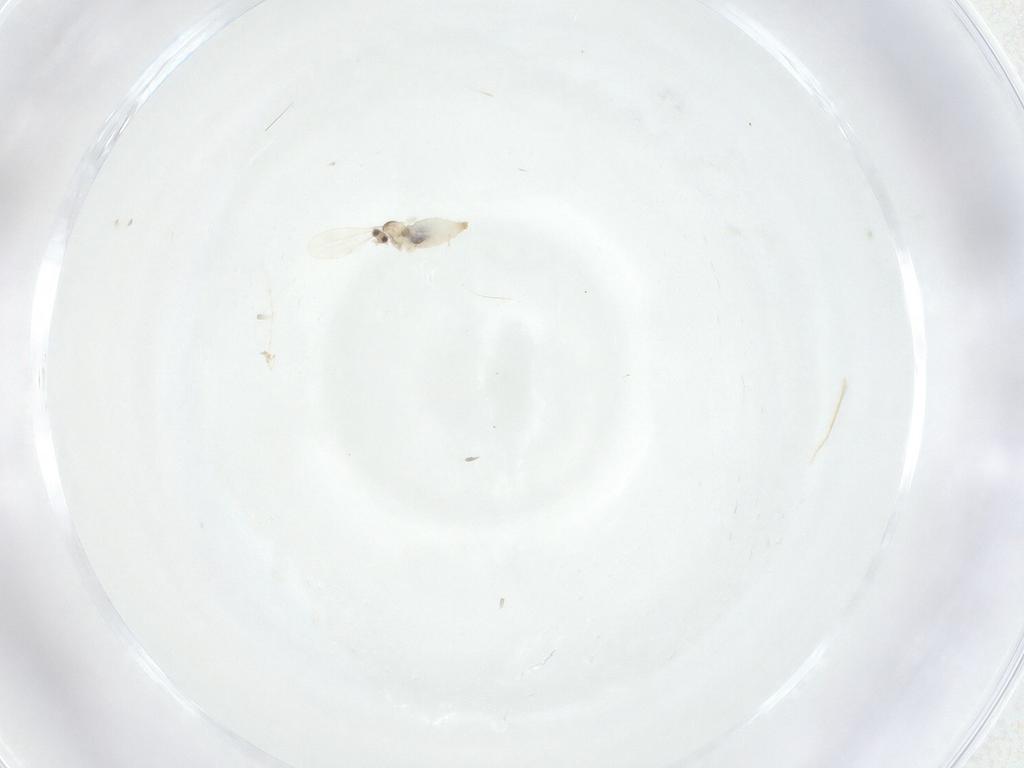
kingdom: Animalia
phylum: Arthropoda
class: Insecta
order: Diptera
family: Cecidomyiidae
